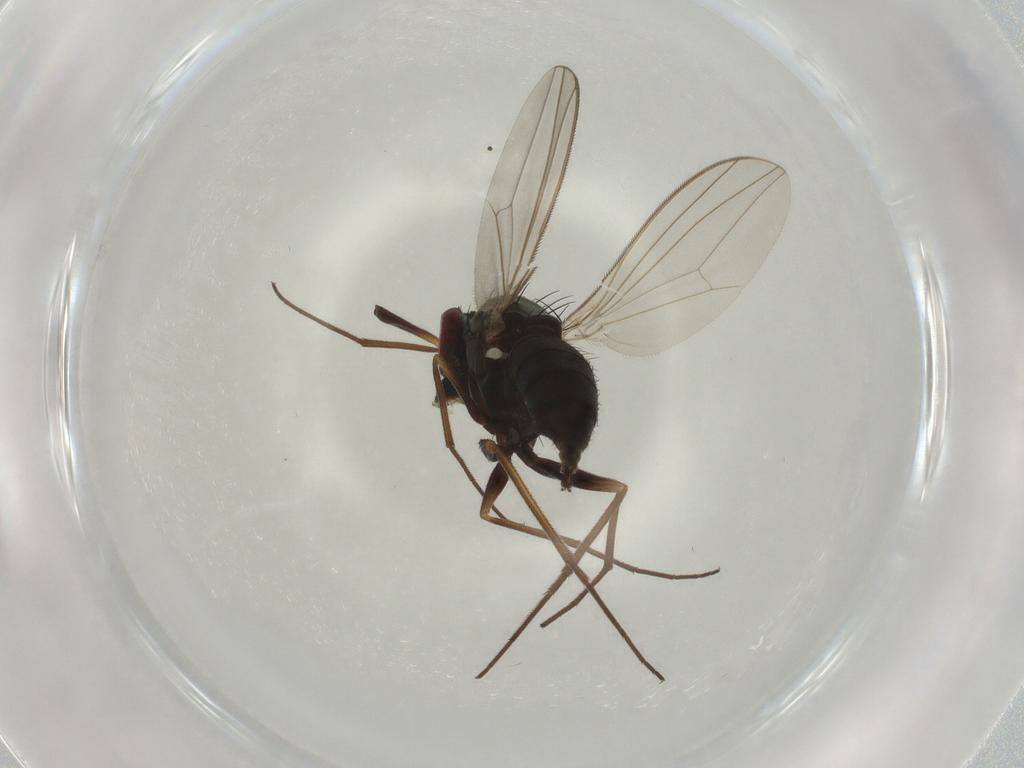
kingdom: Animalia
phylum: Arthropoda
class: Insecta
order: Diptera
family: Dolichopodidae
